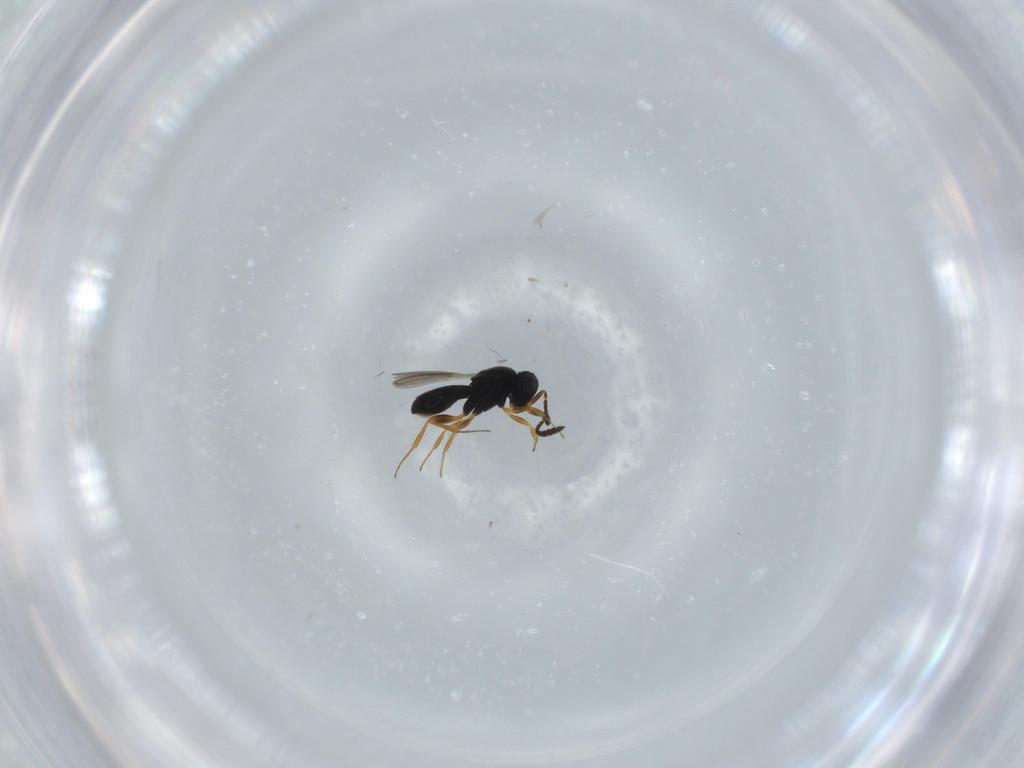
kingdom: Animalia
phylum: Arthropoda
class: Insecta
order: Hymenoptera
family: Scelionidae
